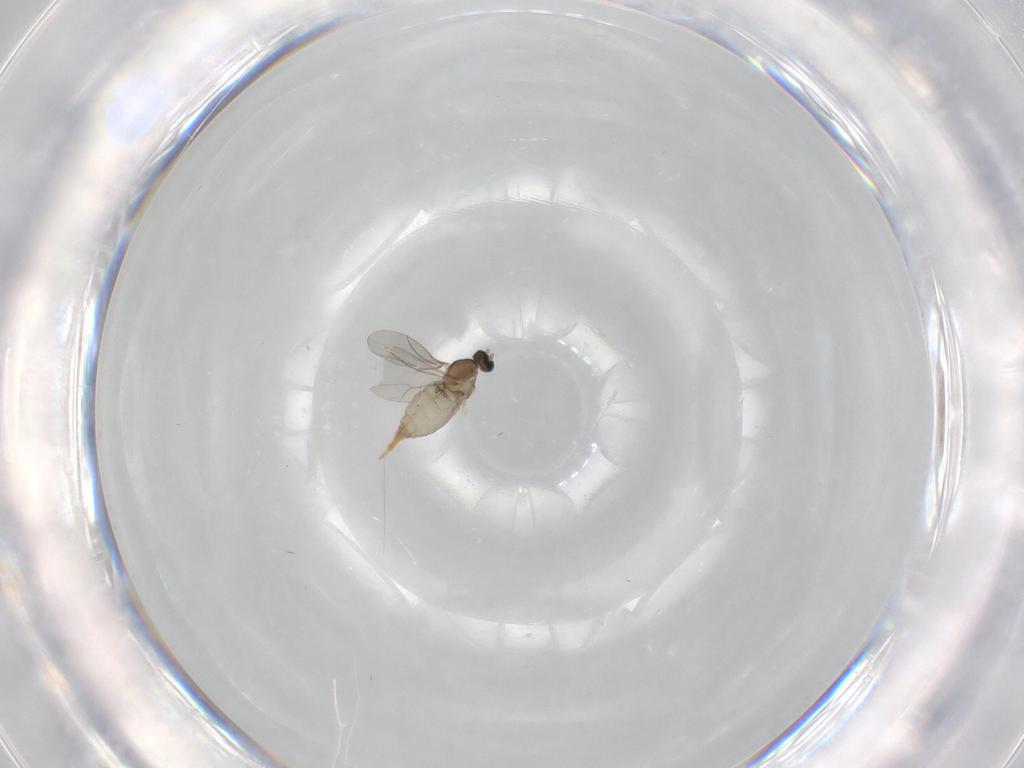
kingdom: Animalia
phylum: Arthropoda
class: Insecta
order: Diptera
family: Cecidomyiidae
